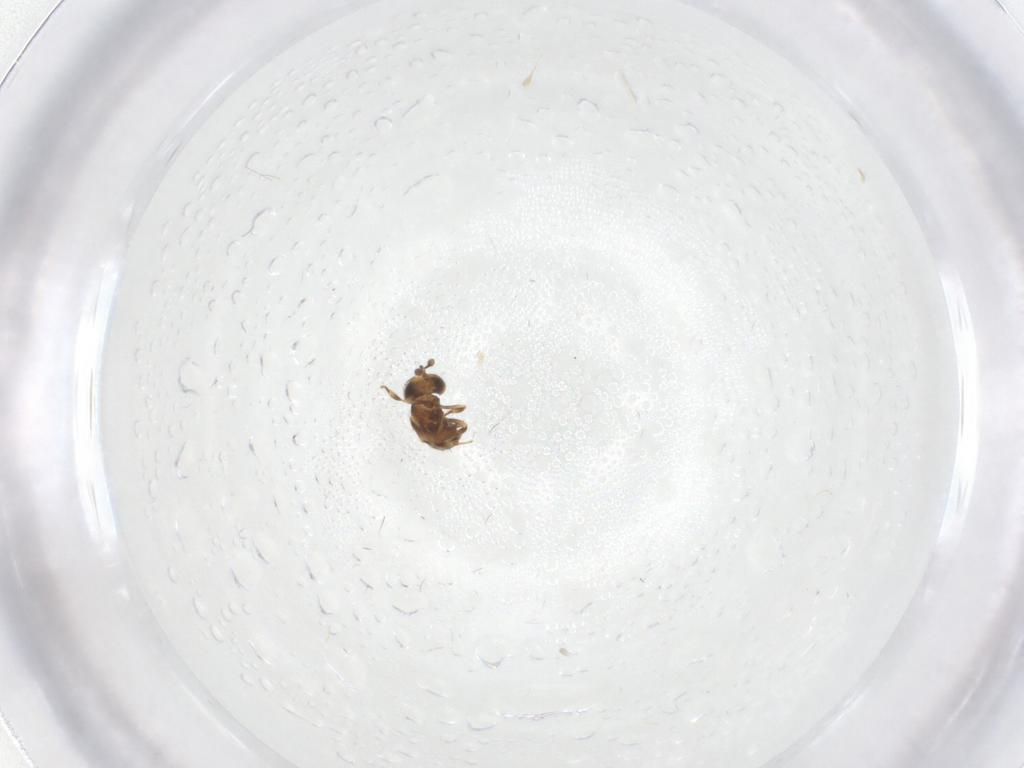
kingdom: Animalia
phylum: Arthropoda
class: Insecta
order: Hymenoptera
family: Scelionidae
